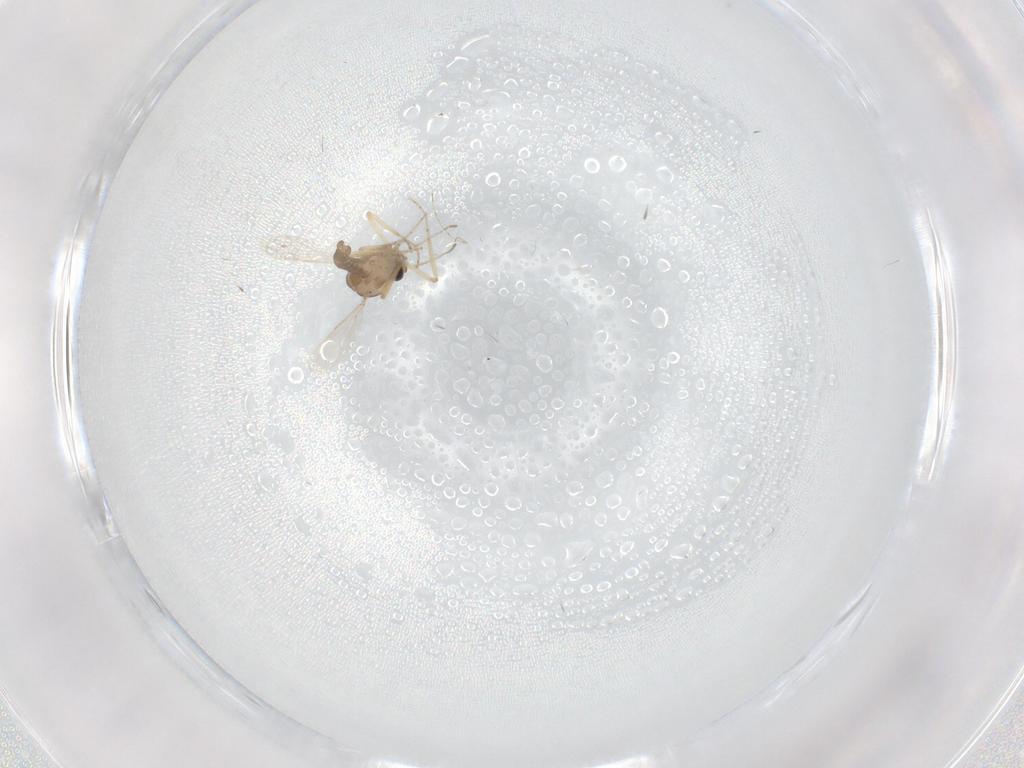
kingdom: Animalia
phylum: Arthropoda
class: Insecta
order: Diptera
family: Ceratopogonidae
